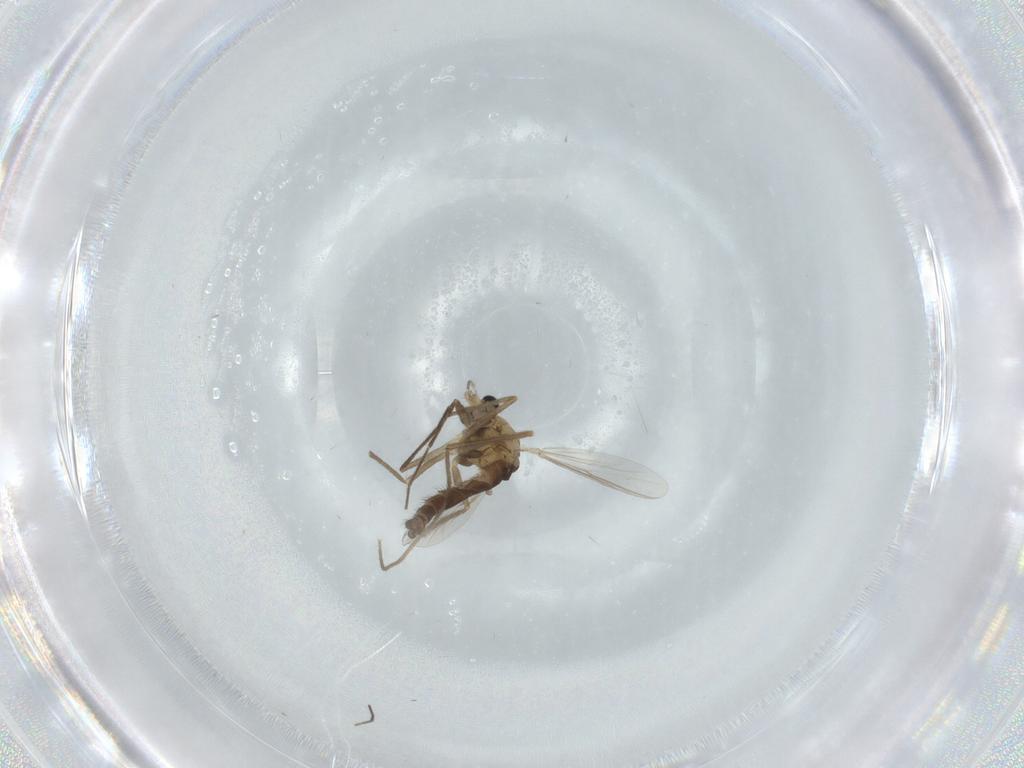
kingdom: Animalia
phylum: Arthropoda
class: Insecta
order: Diptera
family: Chironomidae
